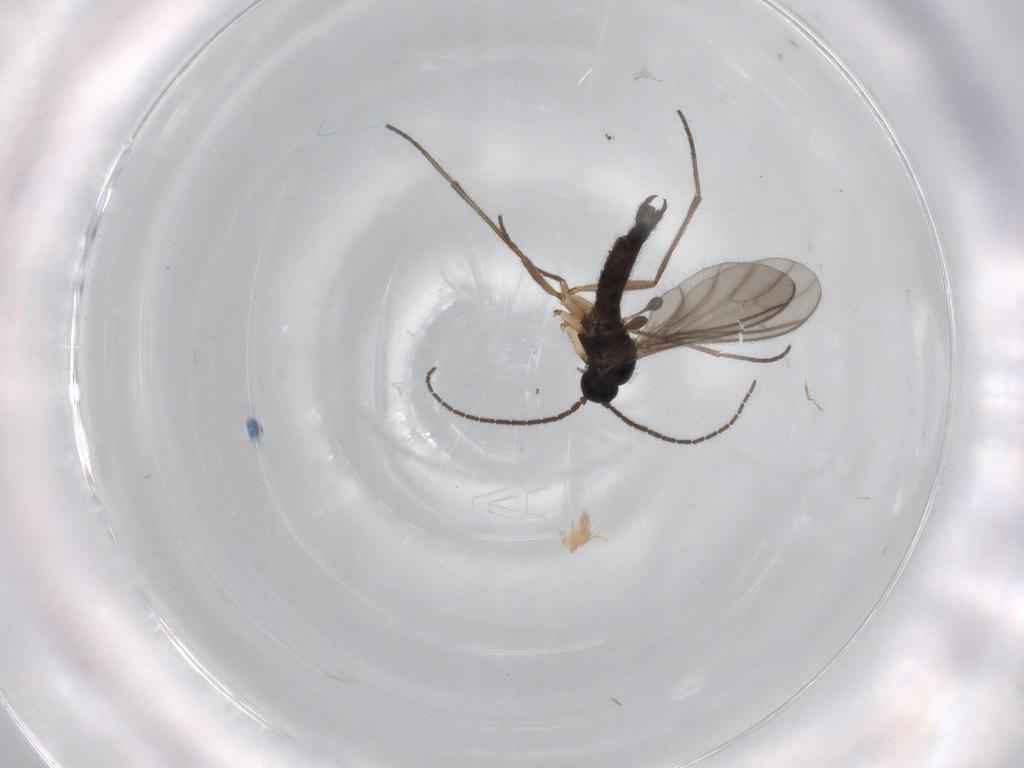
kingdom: Animalia
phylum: Arthropoda
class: Insecta
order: Diptera
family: Sciaridae
